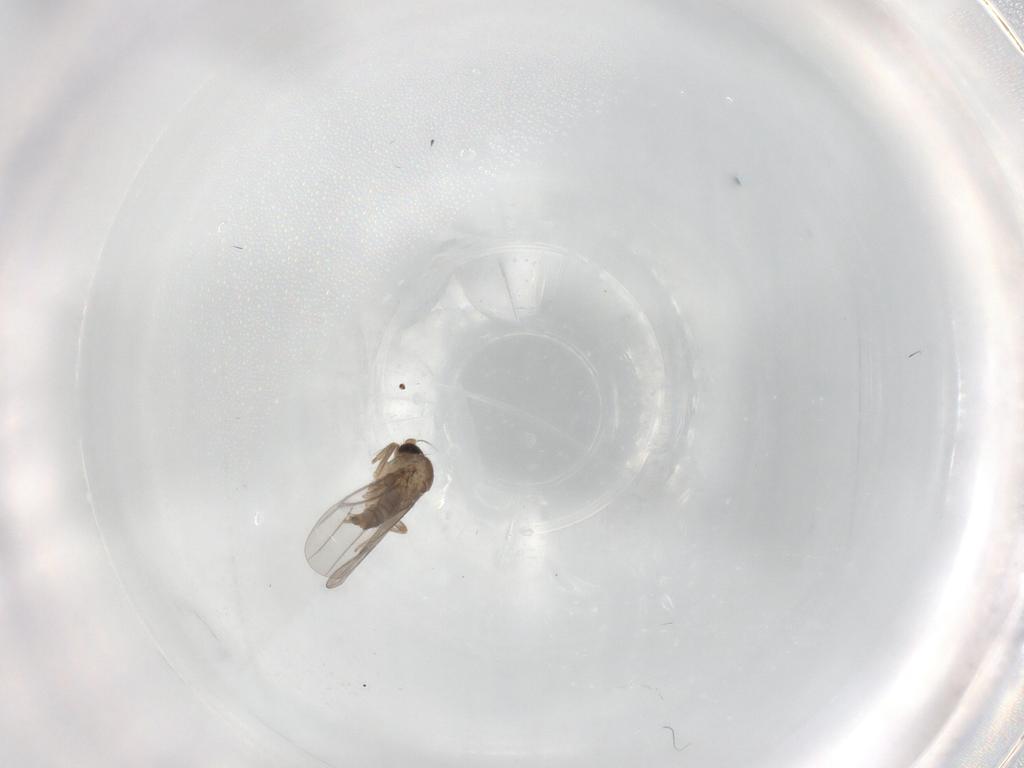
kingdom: Animalia
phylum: Arthropoda
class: Insecta
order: Diptera
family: Chironomidae
